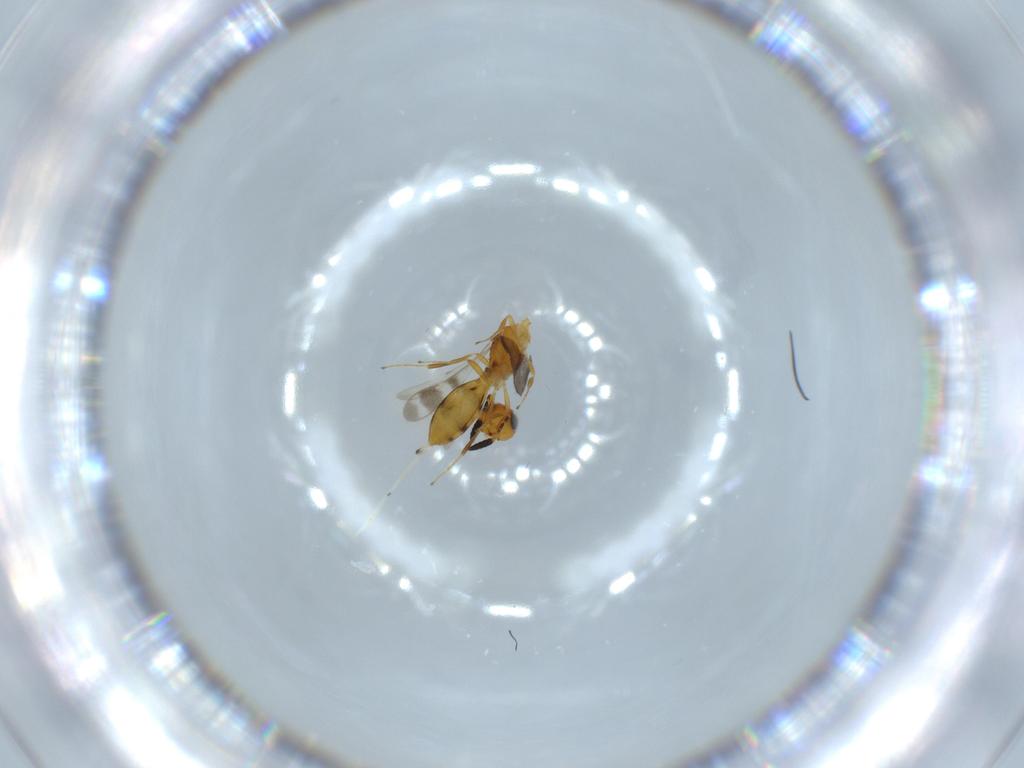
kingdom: Animalia
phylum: Arthropoda
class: Insecta
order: Hymenoptera
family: Scelionidae
